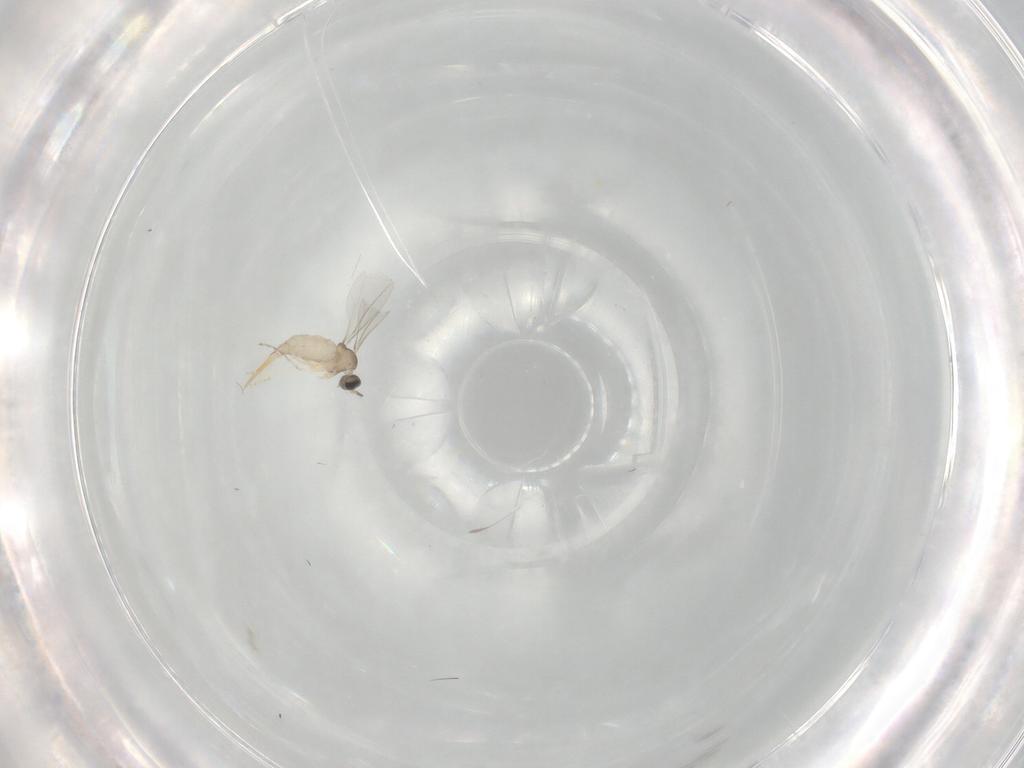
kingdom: Animalia
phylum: Arthropoda
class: Insecta
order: Diptera
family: Cecidomyiidae
